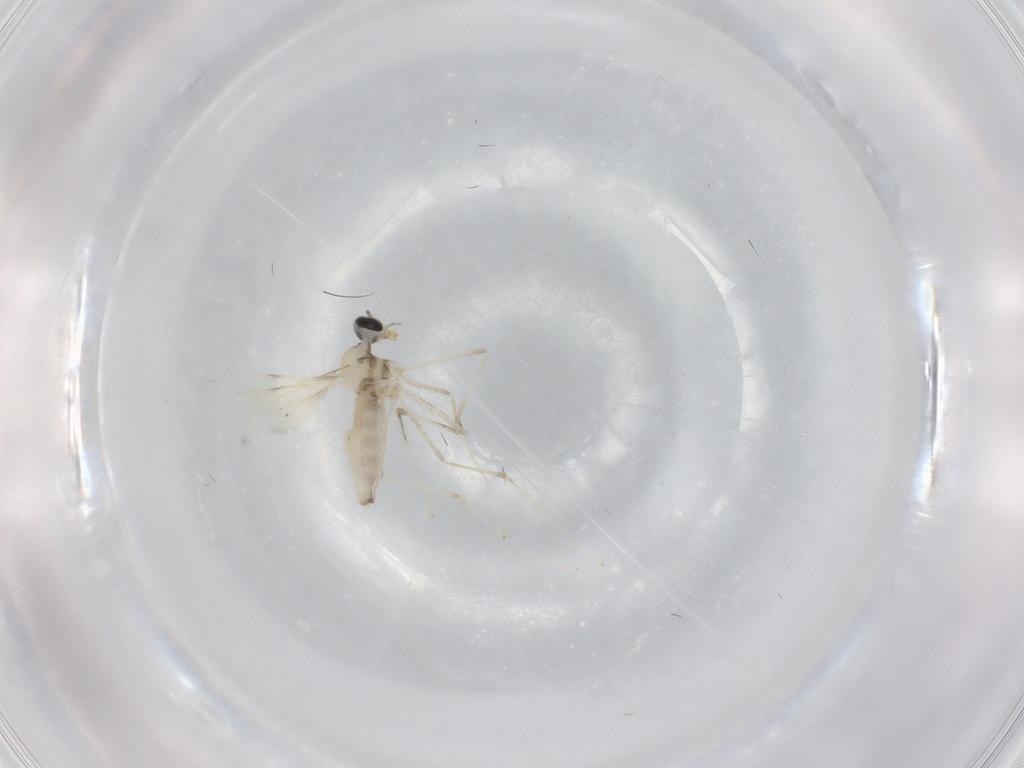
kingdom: Animalia
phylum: Arthropoda
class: Insecta
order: Diptera
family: Cecidomyiidae
